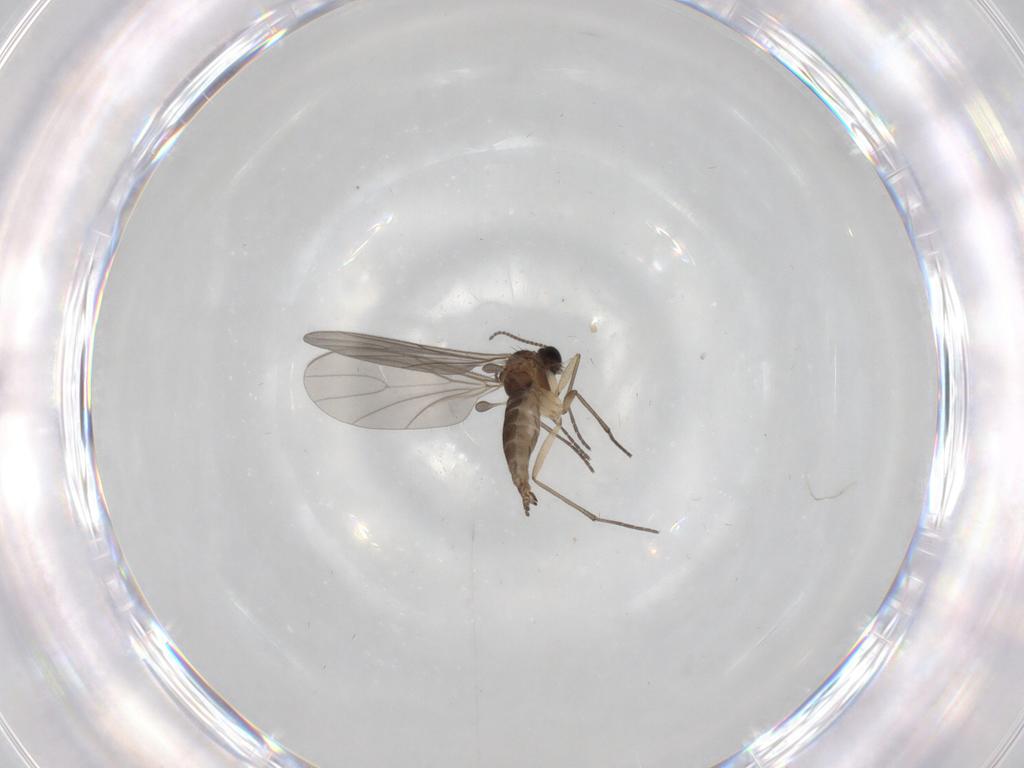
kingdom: Animalia
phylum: Arthropoda
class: Insecta
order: Diptera
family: Sciaridae
